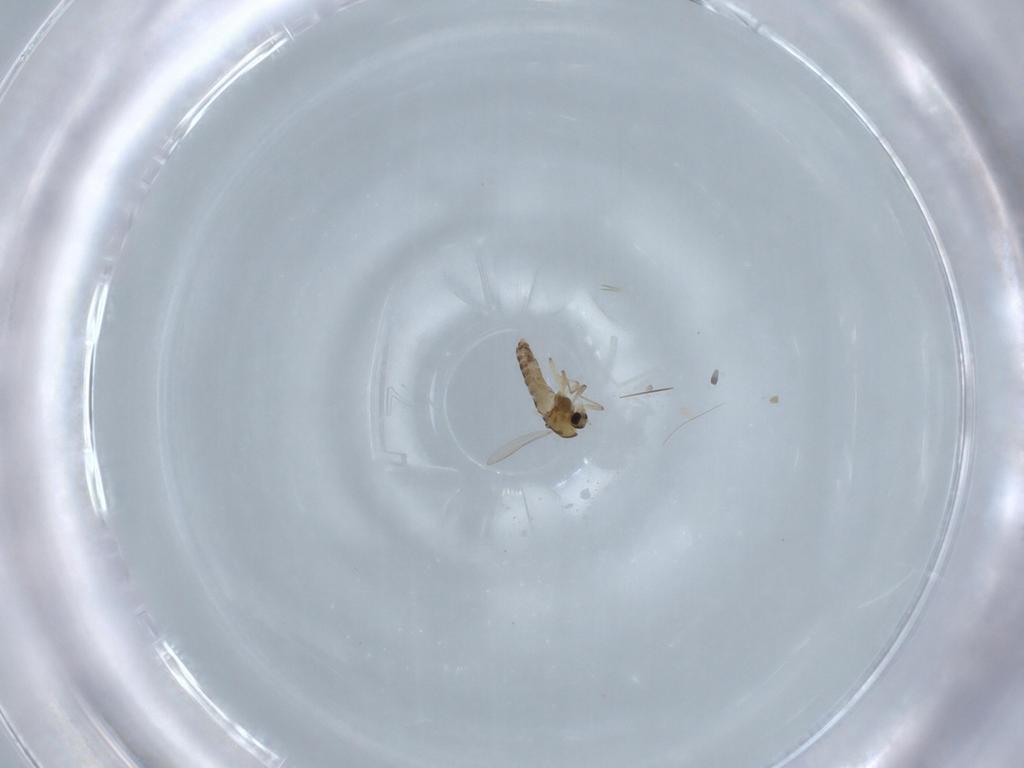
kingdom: Animalia
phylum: Arthropoda
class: Insecta
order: Diptera
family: Chironomidae
